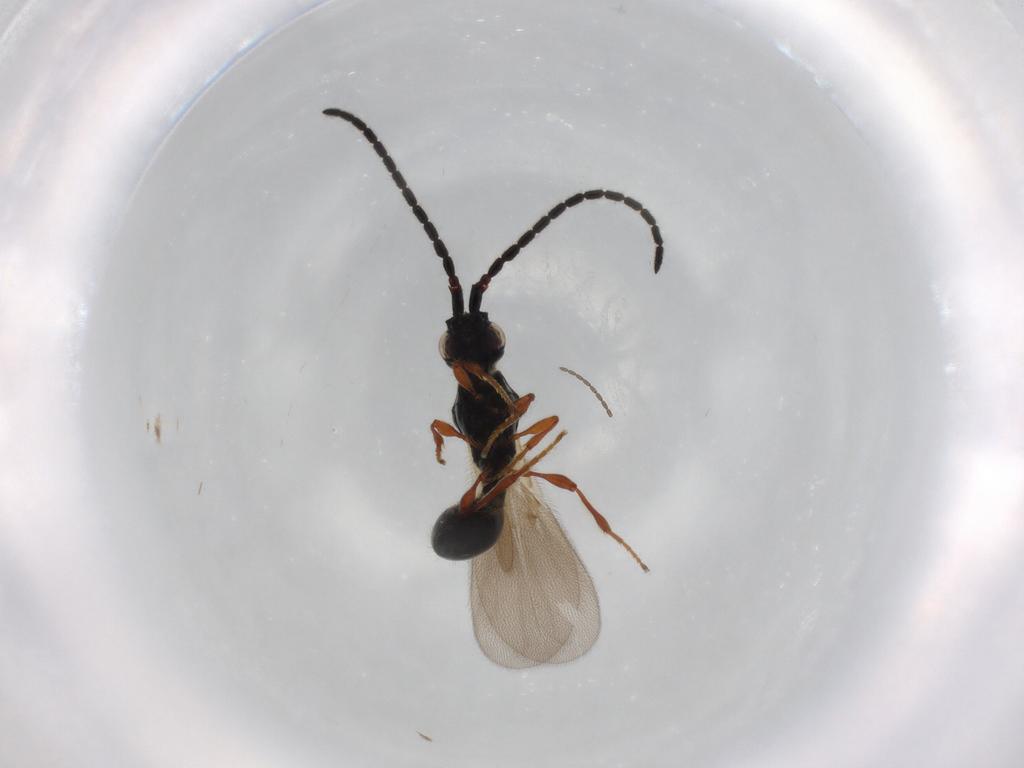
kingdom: Animalia
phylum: Arthropoda
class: Insecta
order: Hymenoptera
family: Diapriidae
